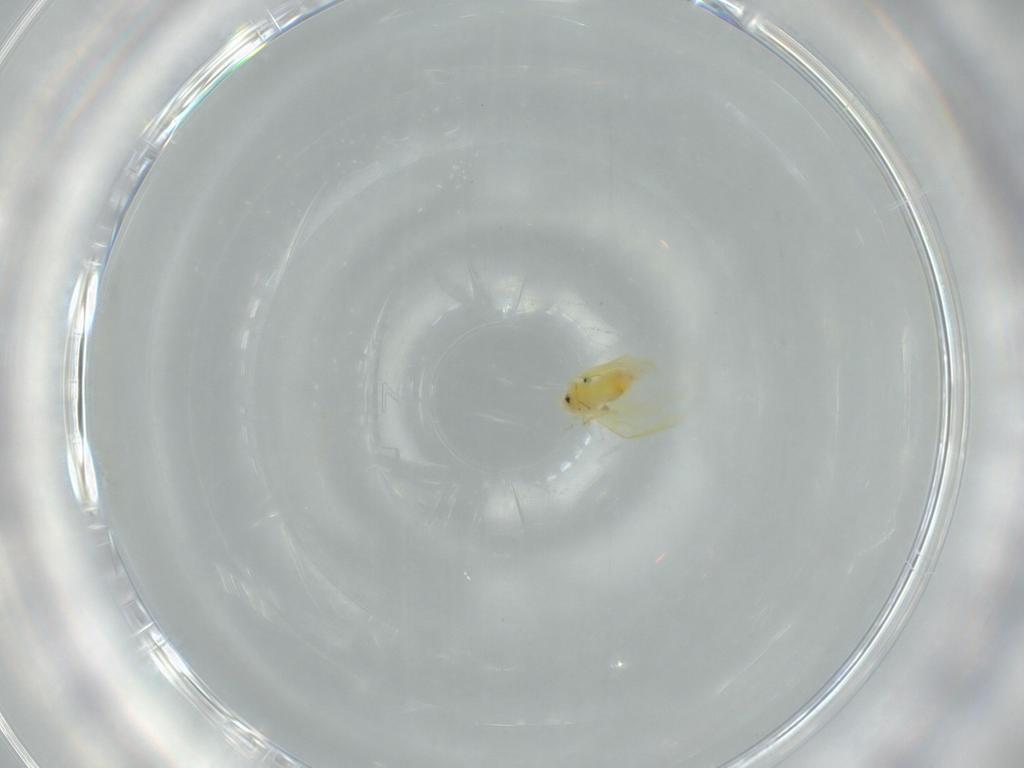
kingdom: Animalia
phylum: Arthropoda
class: Insecta
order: Hemiptera
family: Aleyrodidae
